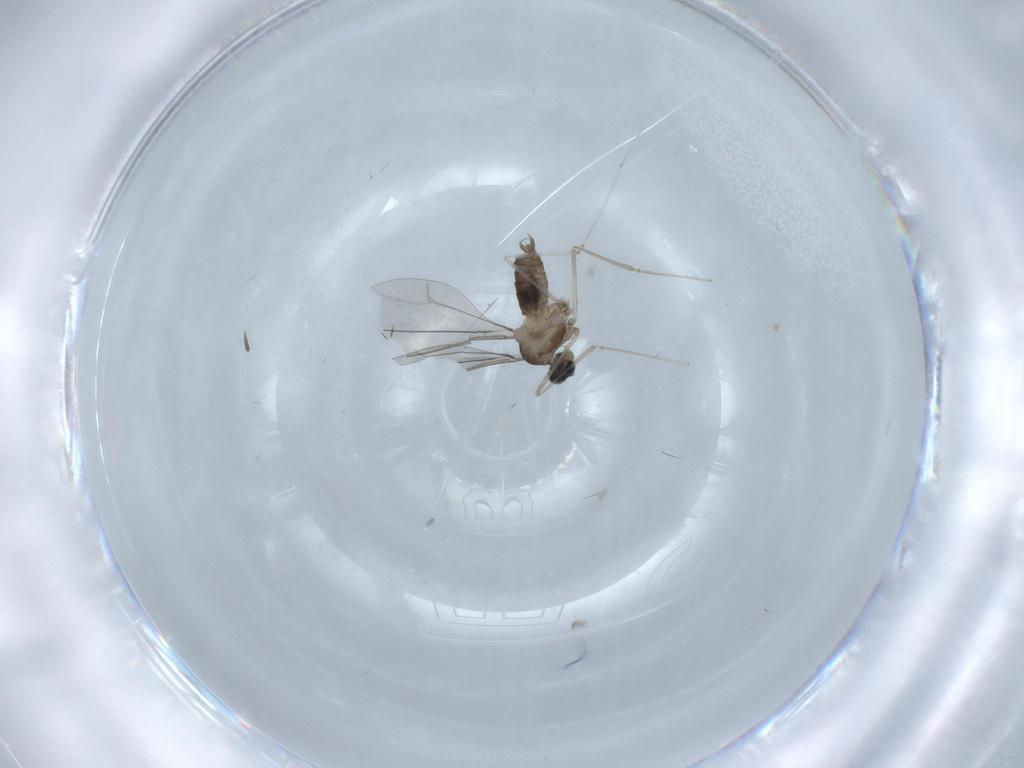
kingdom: Animalia
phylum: Arthropoda
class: Insecta
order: Diptera
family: Cecidomyiidae
